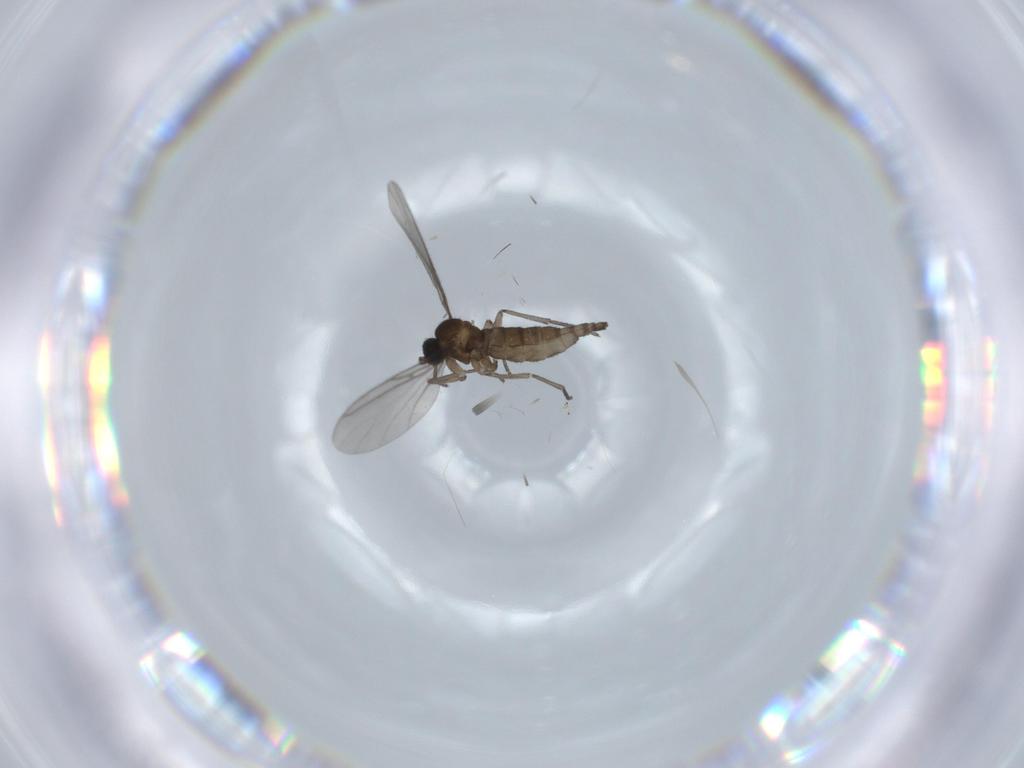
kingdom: Animalia
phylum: Arthropoda
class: Insecta
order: Diptera
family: Sciaridae
